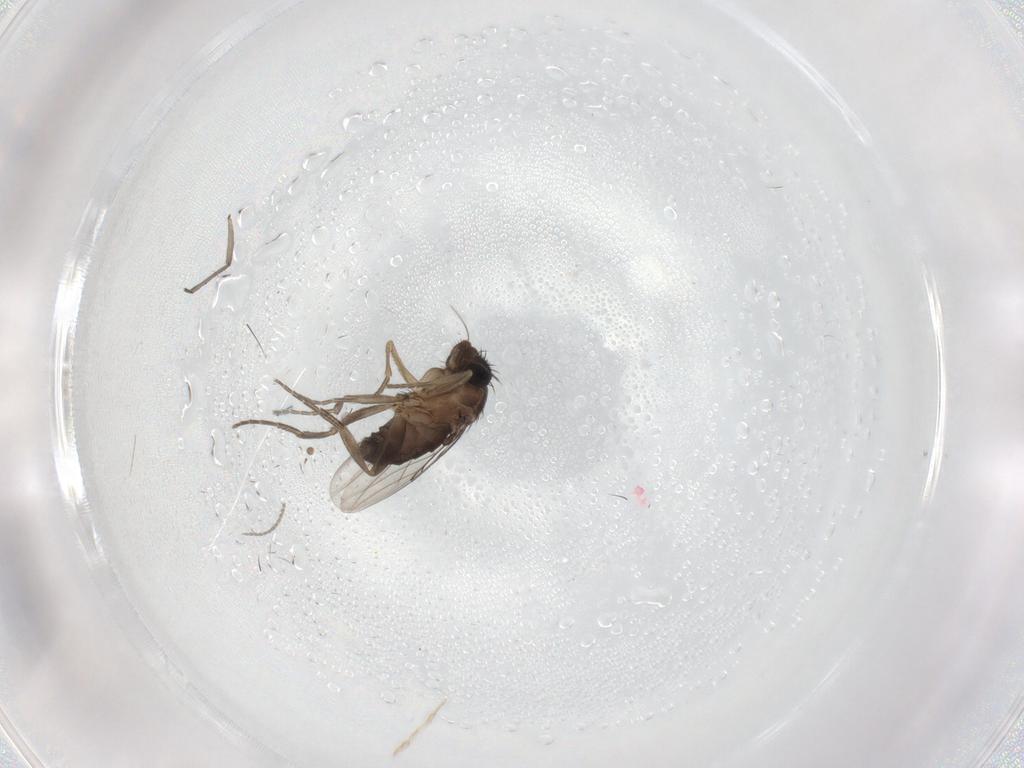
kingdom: Animalia
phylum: Arthropoda
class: Insecta
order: Diptera
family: Sciaridae
